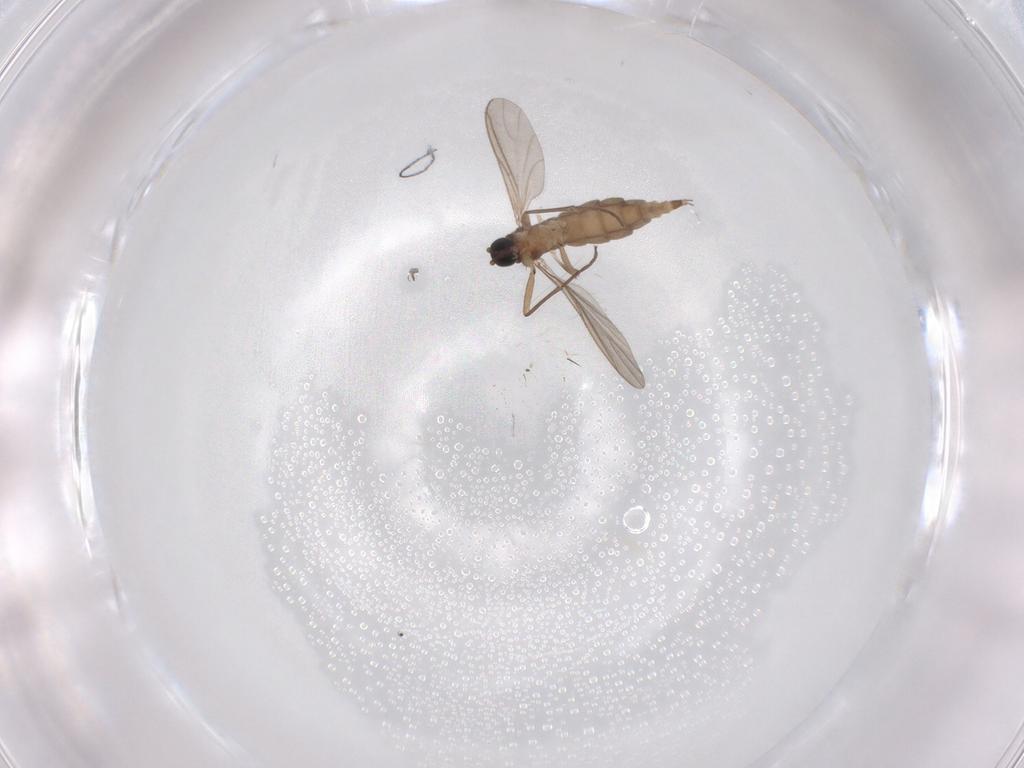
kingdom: Animalia
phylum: Arthropoda
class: Insecta
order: Diptera
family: Sciaridae
